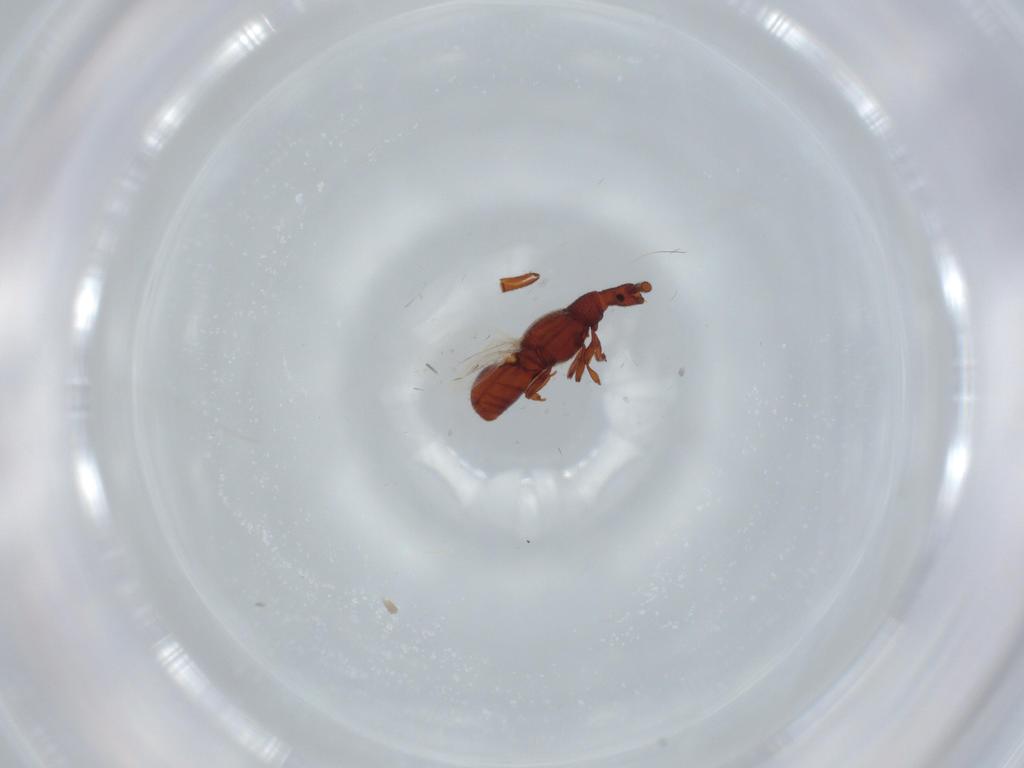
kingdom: Animalia
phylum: Arthropoda
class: Insecta
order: Coleoptera
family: Staphylinidae
